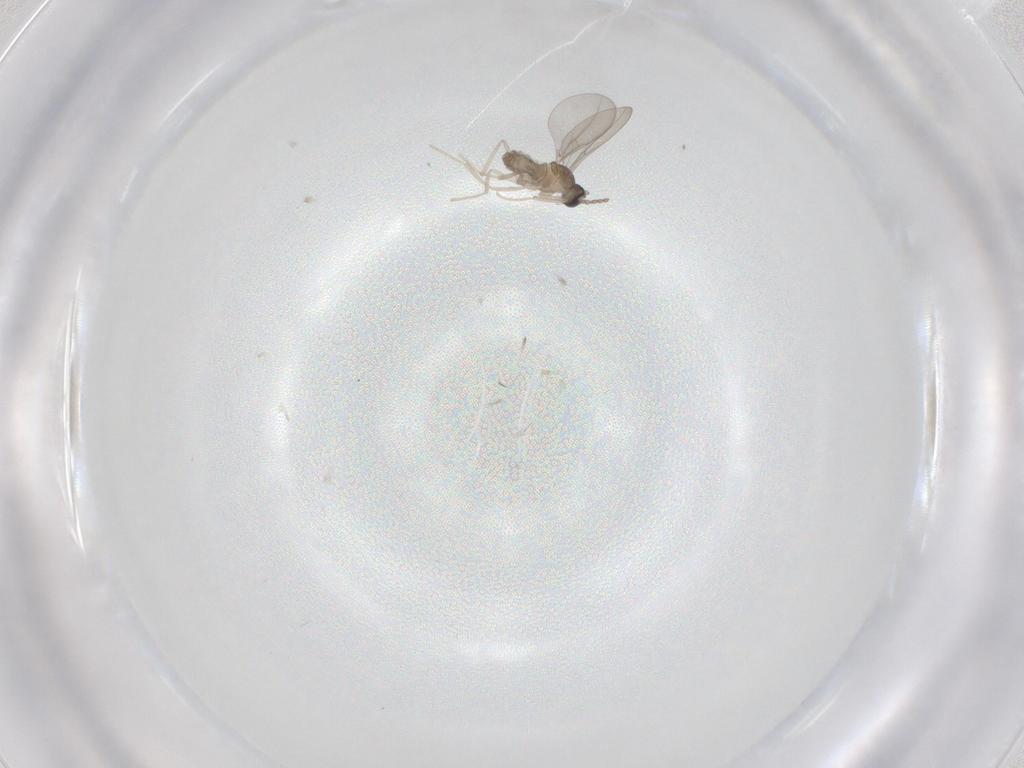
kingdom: Animalia
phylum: Arthropoda
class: Insecta
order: Diptera
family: Cecidomyiidae
